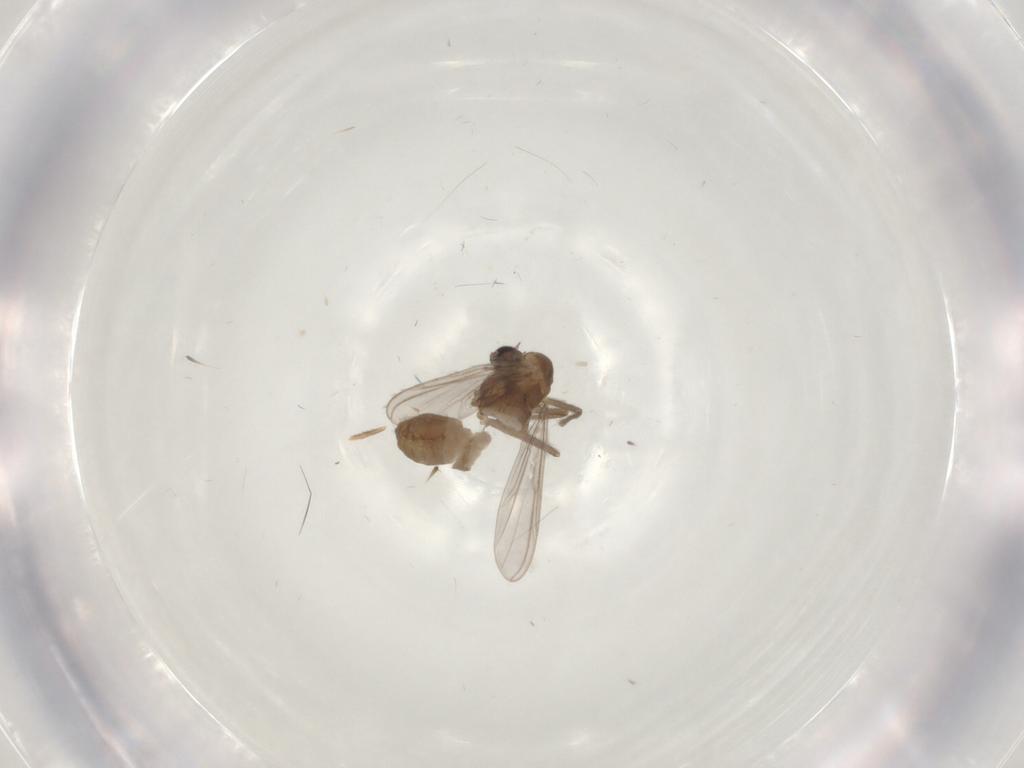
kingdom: Animalia
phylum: Arthropoda
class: Insecta
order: Diptera
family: Chironomidae
